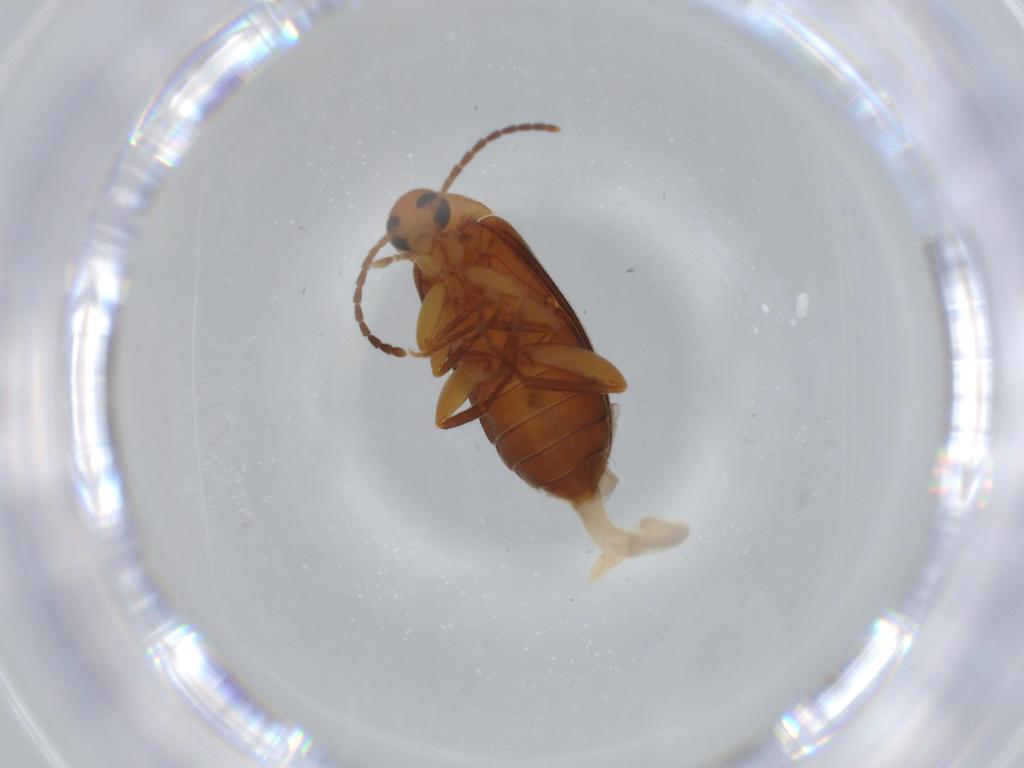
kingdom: Animalia
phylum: Arthropoda
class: Insecta
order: Coleoptera
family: Scraptiidae
